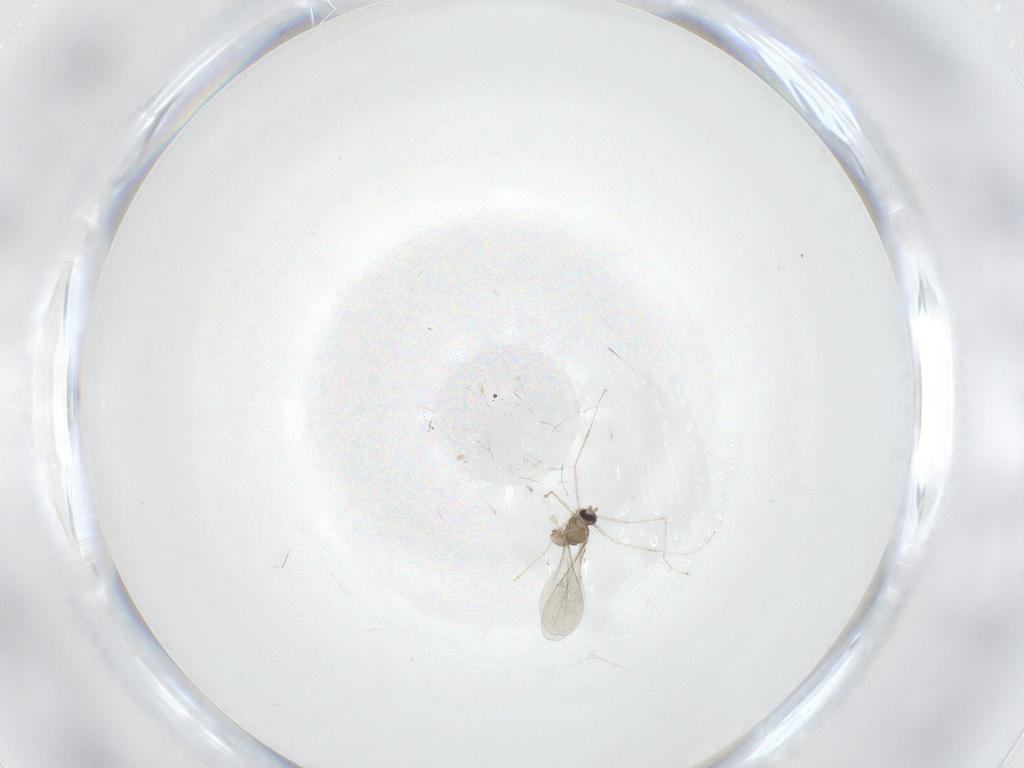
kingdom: Animalia
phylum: Arthropoda
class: Insecta
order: Diptera
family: Cecidomyiidae
